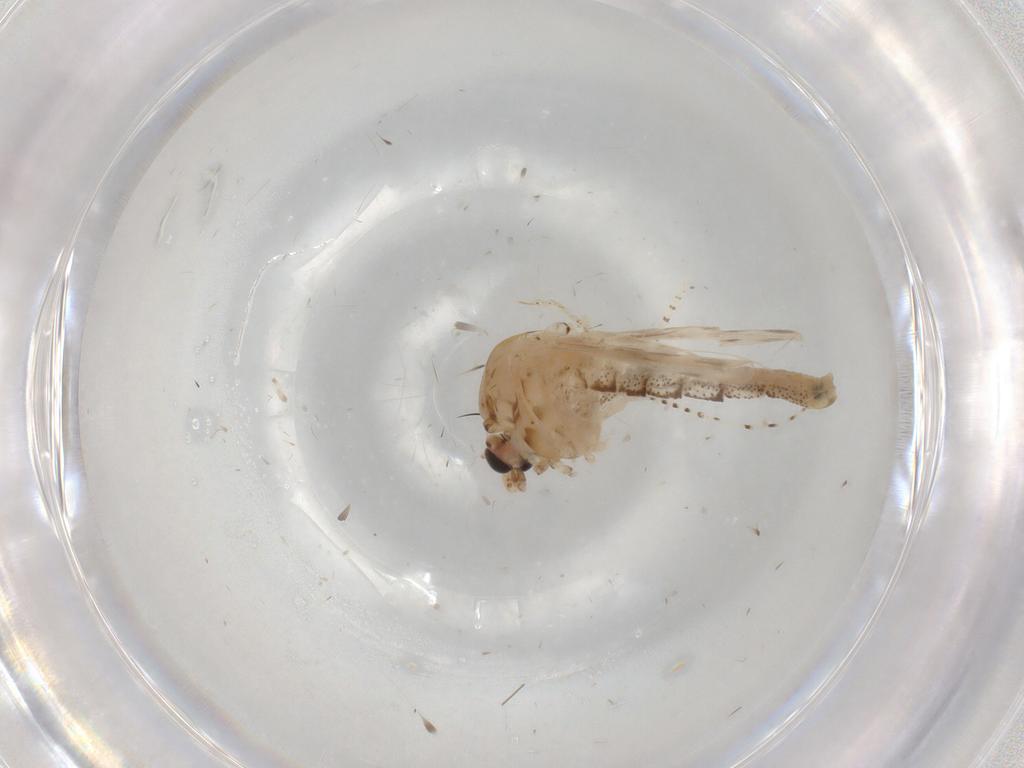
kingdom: Animalia
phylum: Arthropoda
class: Insecta
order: Diptera
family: Chaoboridae
